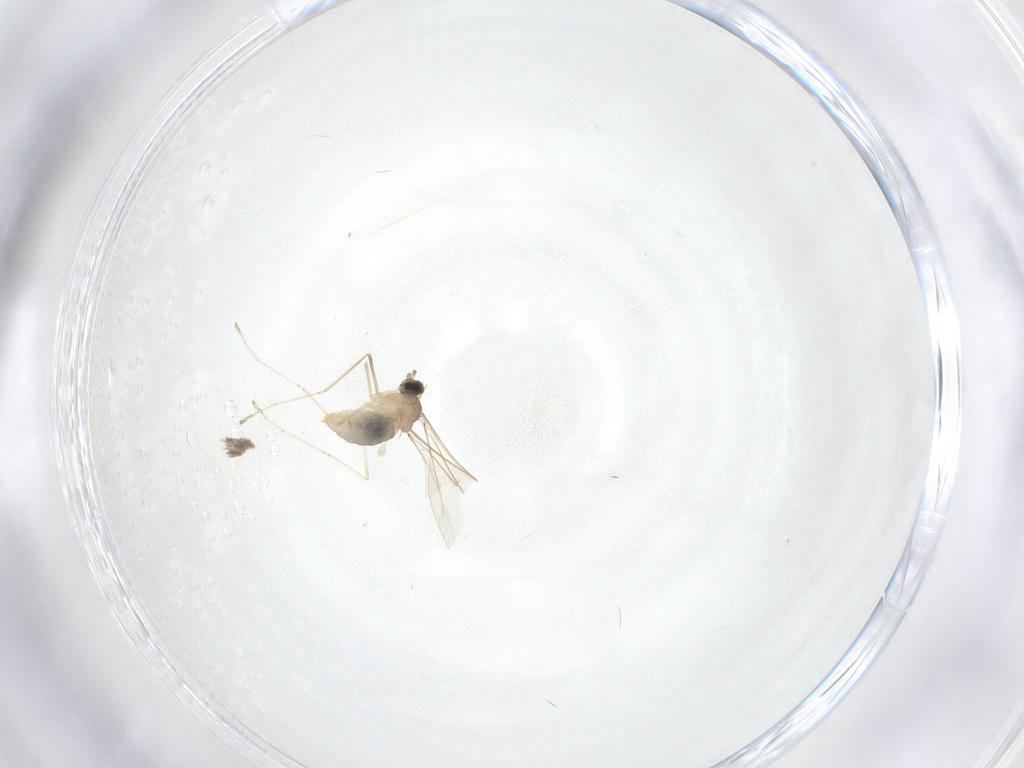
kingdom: Animalia
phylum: Arthropoda
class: Insecta
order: Diptera
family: Cecidomyiidae
